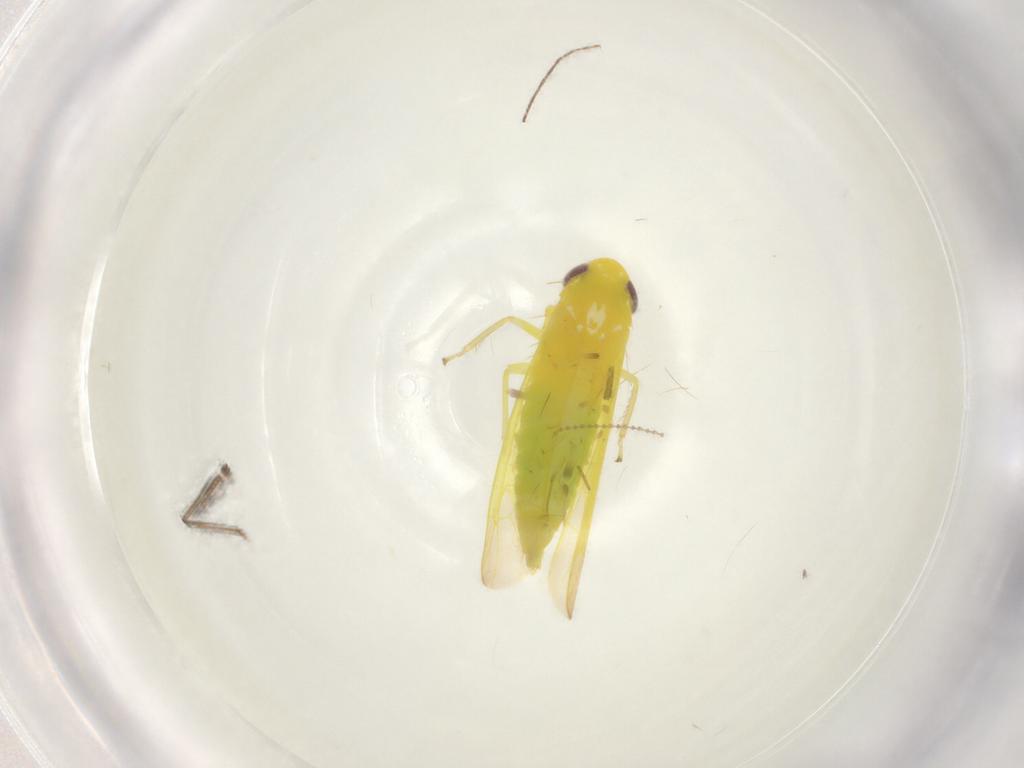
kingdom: Animalia
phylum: Arthropoda
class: Insecta
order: Hemiptera
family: Cicadellidae
